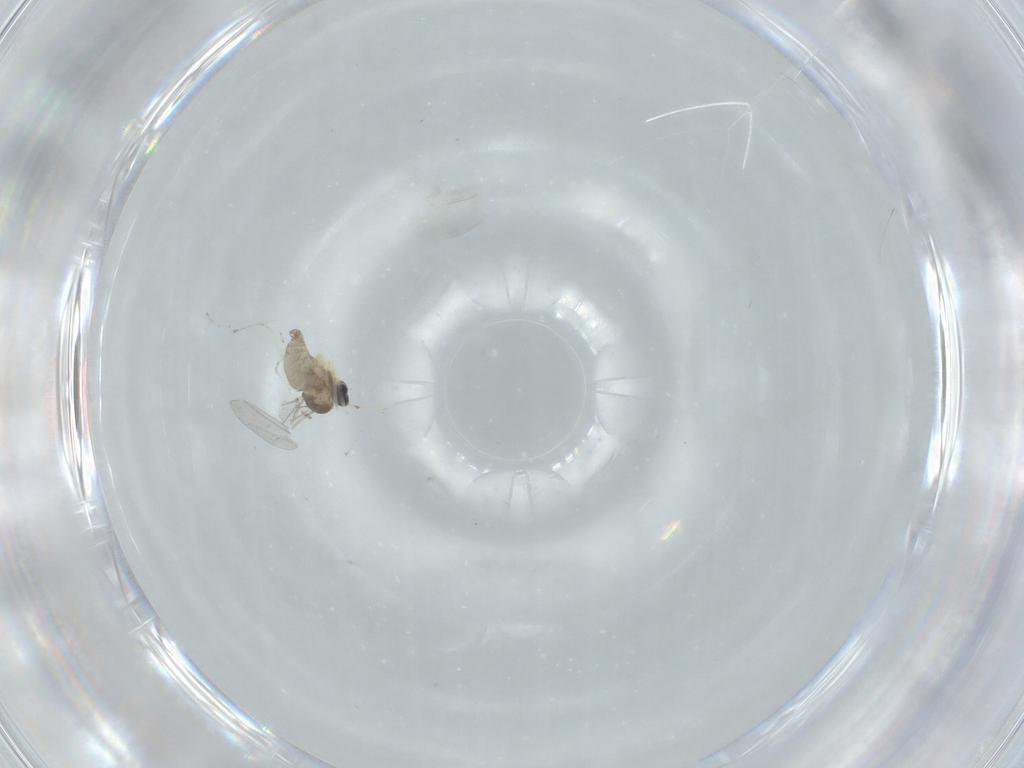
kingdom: Animalia
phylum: Arthropoda
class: Insecta
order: Diptera
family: Cecidomyiidae
